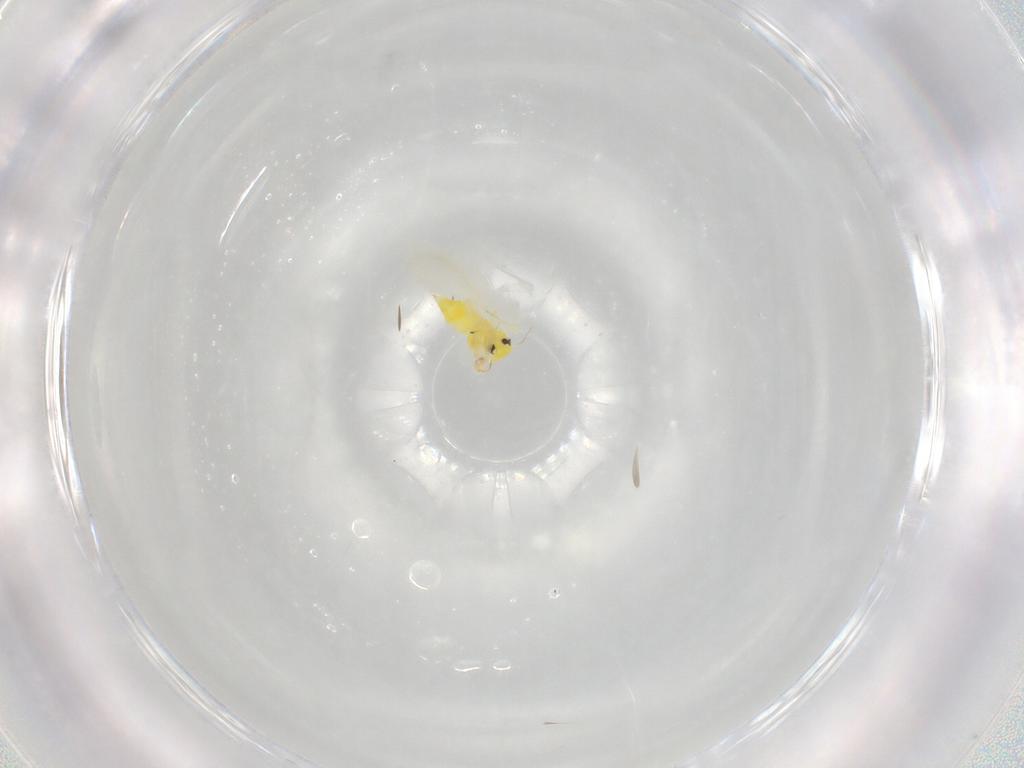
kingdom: Animalia
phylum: Arthropoda
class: Insecta
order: Hemiptera
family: Aleyrodidae
